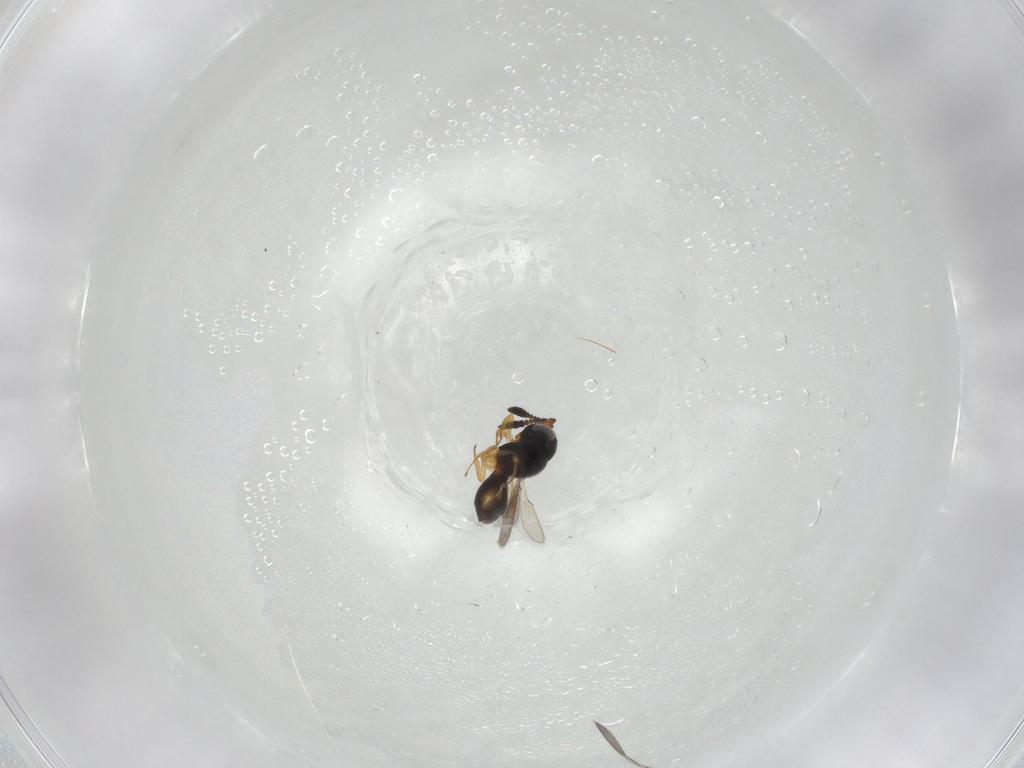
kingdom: Animalia
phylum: Arthropoda
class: Insecta
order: Hymenoptera
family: Scelionidae
